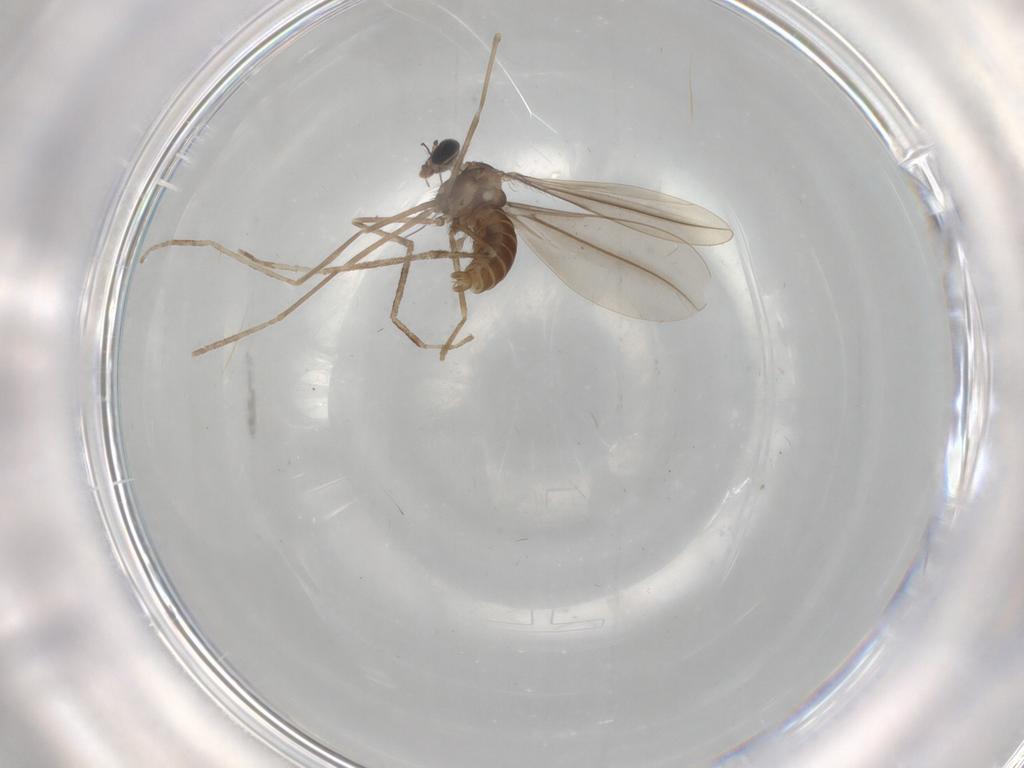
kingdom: Animalia
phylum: Arthropoda
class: Insecta
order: Diptera
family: Cecidomyiidae
